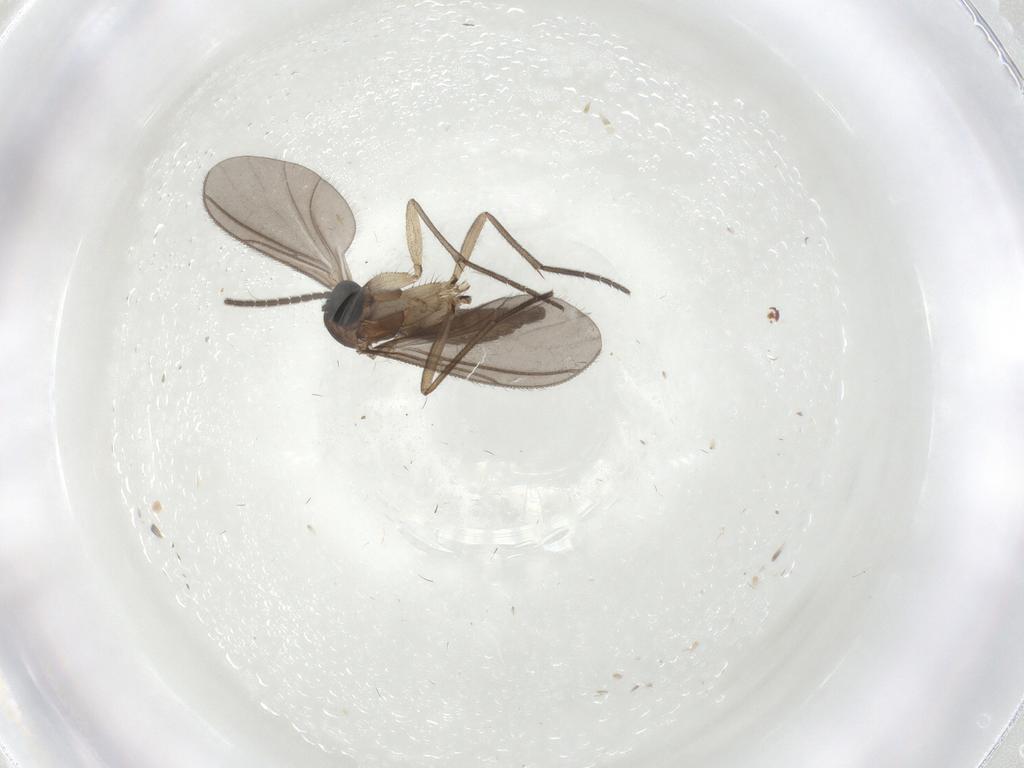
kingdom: Animalia
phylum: Arthropoda
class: Insecta
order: Diptera
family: Sciaridae
